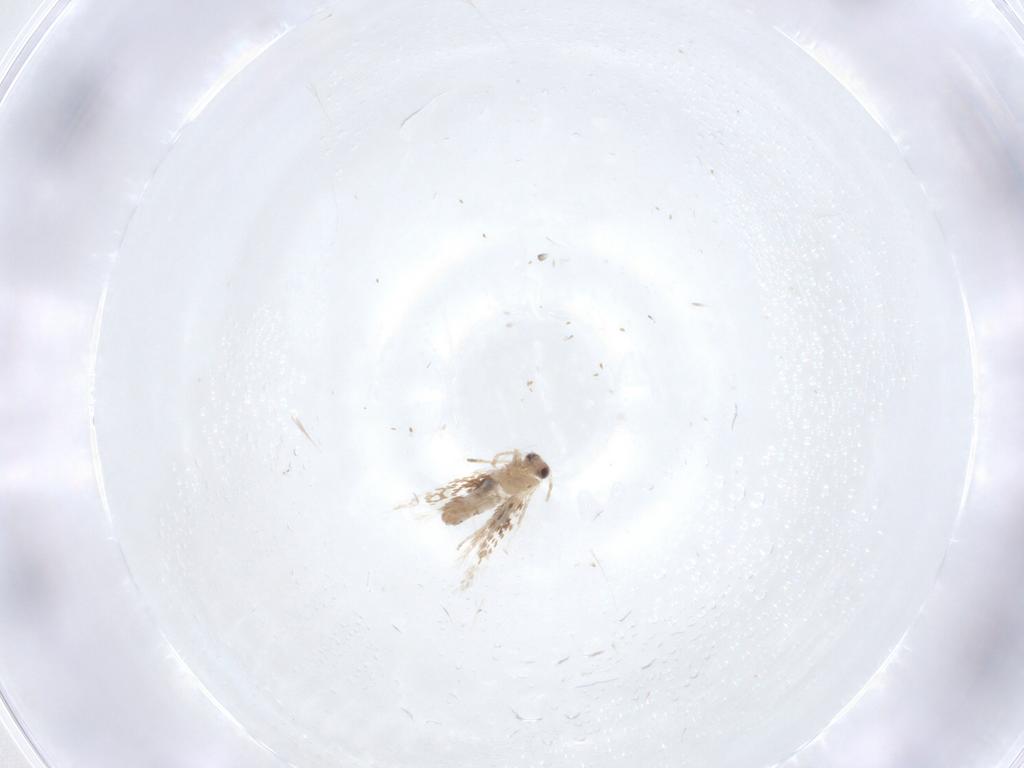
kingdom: Animalia
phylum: Arthropoda
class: Insecta
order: Lepidoptera
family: Nepticulidae
